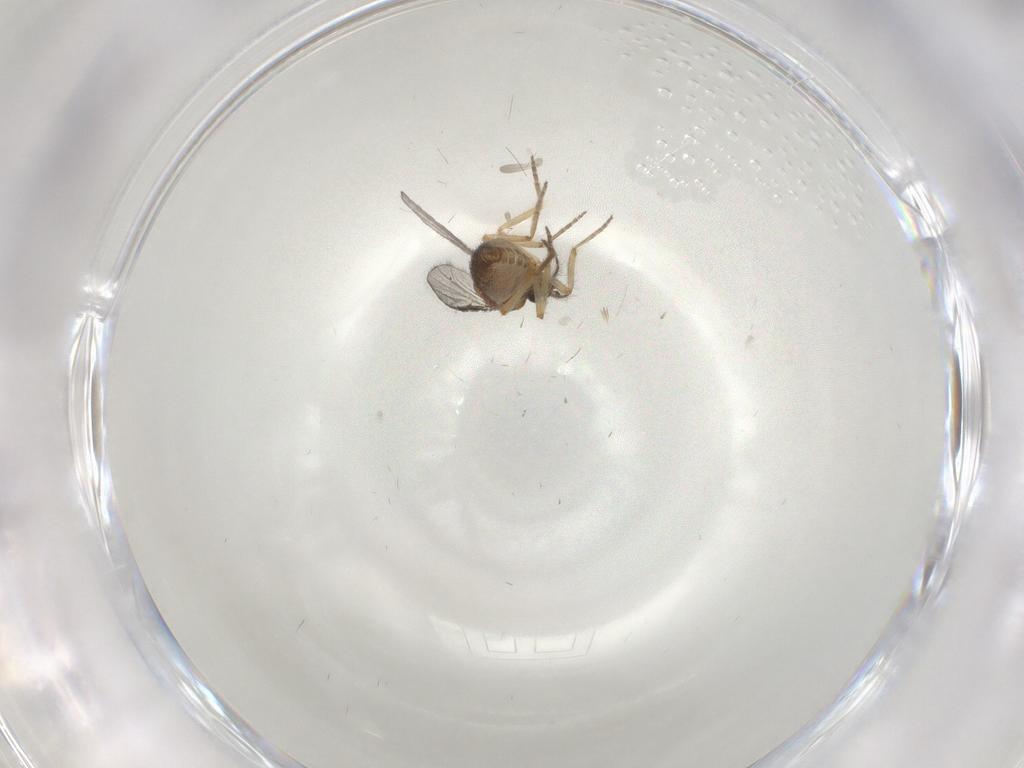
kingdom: Animalia
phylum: Arthropoda
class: Insecta
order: Diptera
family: Ceratopogonidae
